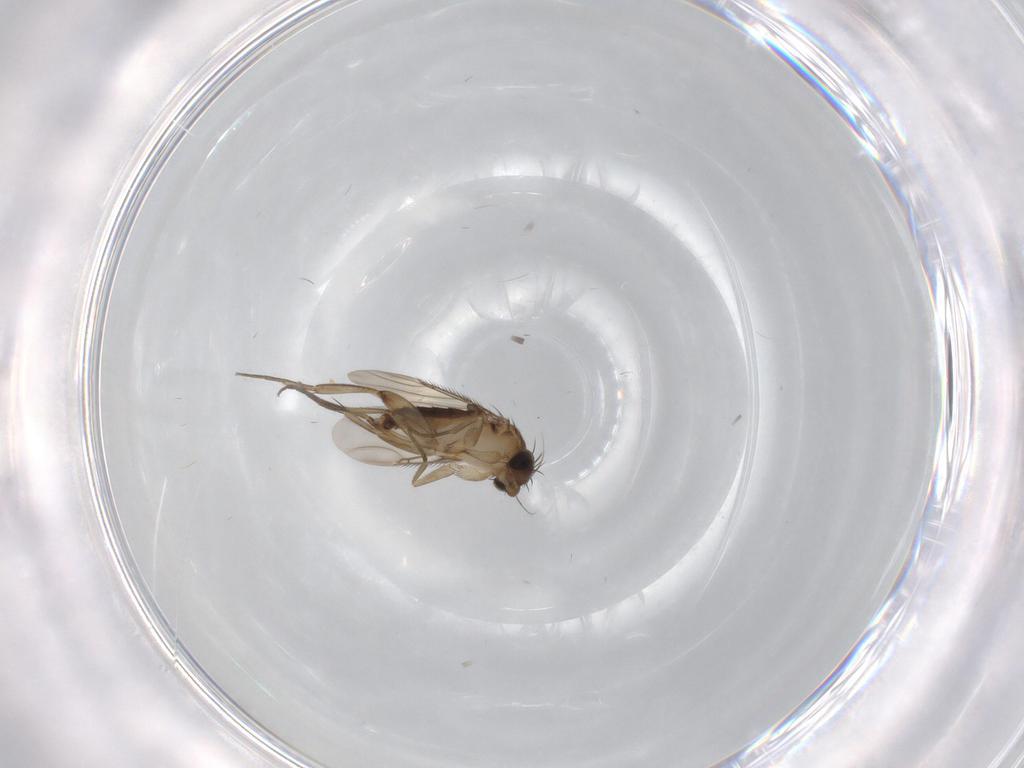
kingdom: Animalia
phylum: Arthropoda
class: Insecta
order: Diptera
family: Phoridae
